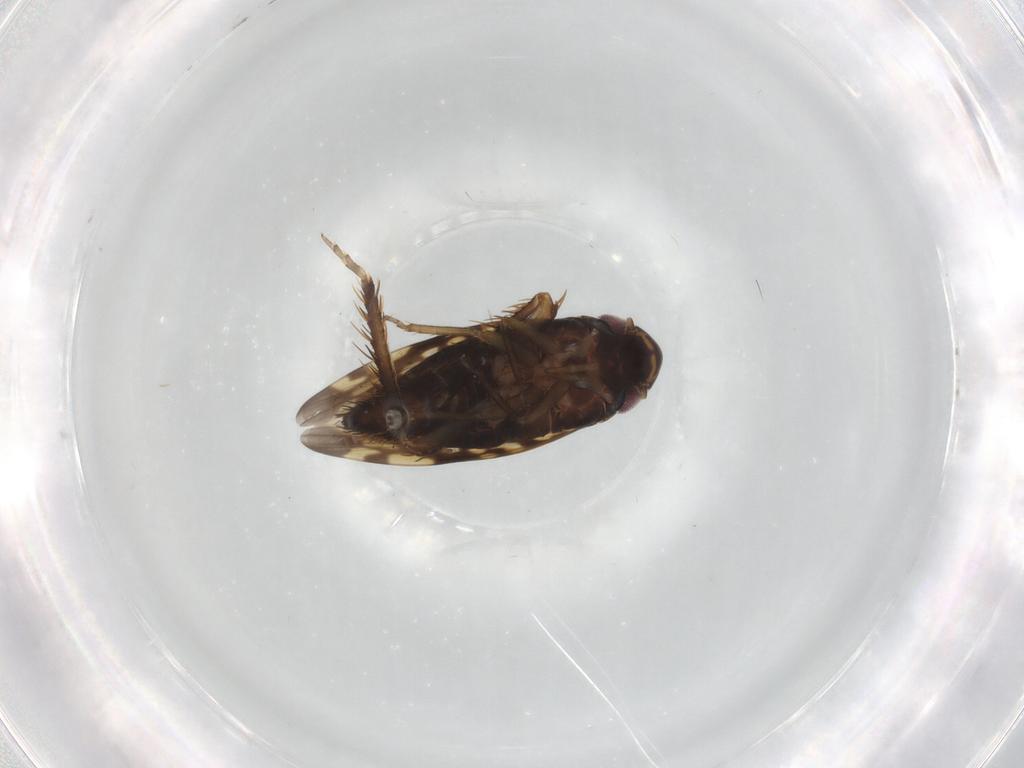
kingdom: Animalia
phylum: Arthropoda
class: Insecta
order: Hemiptera
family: Cicadellidae
